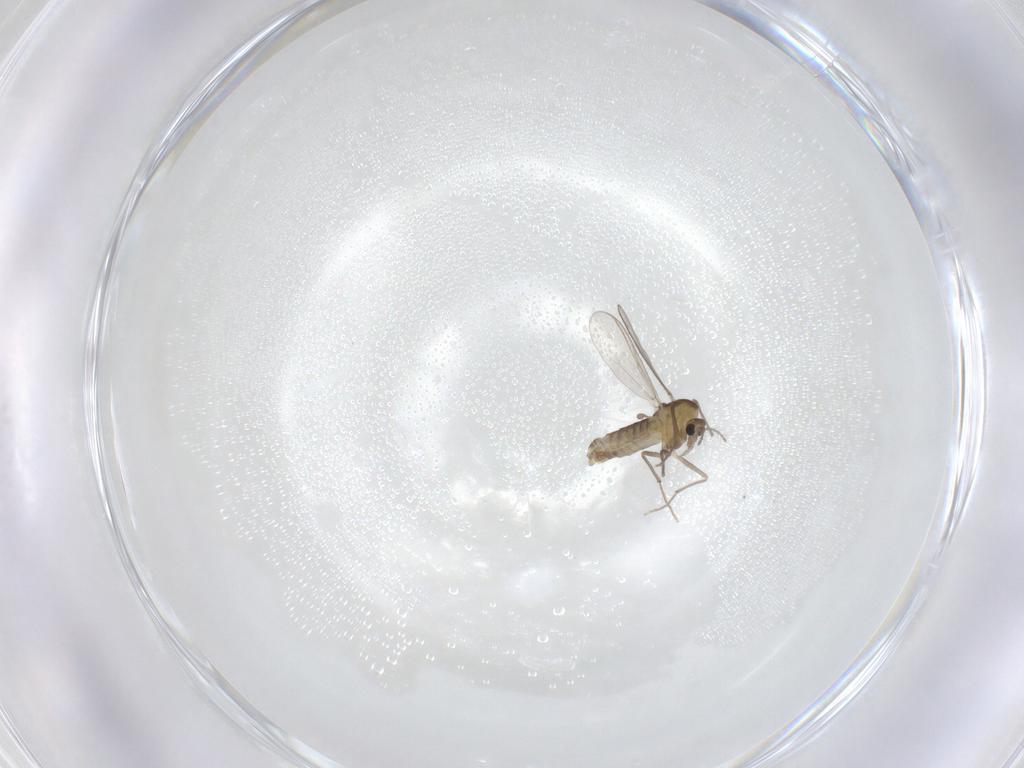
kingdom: Animalia
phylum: Arthropoda
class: Insecta
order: Diptera
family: Chironomidae
